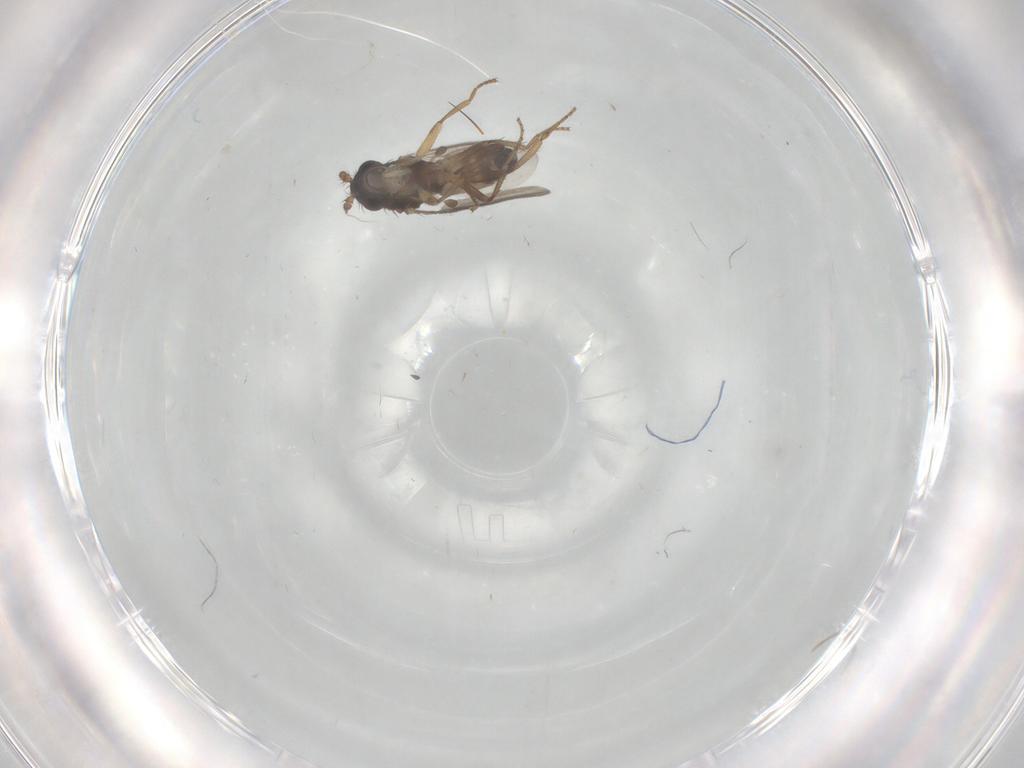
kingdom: Animalia
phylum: Arthropoda
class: Insecta
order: Diptera
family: Sphaeroceridae
